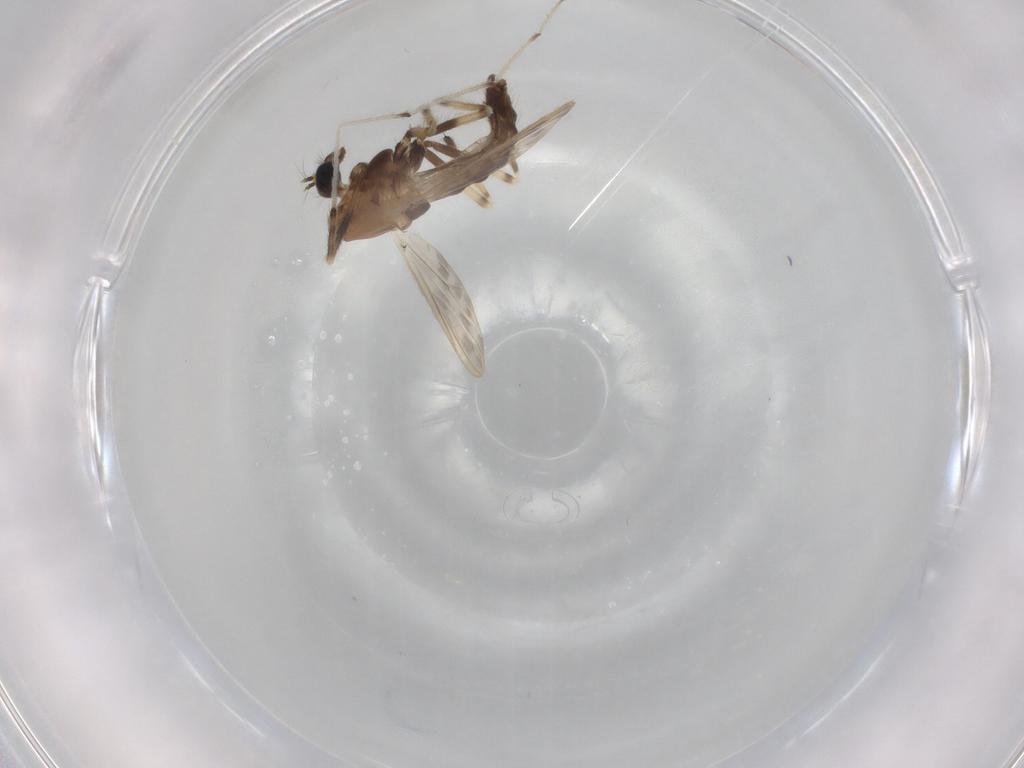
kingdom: Animalia
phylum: Arthropoda
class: Insecta
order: Diptera
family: Chironomidae
